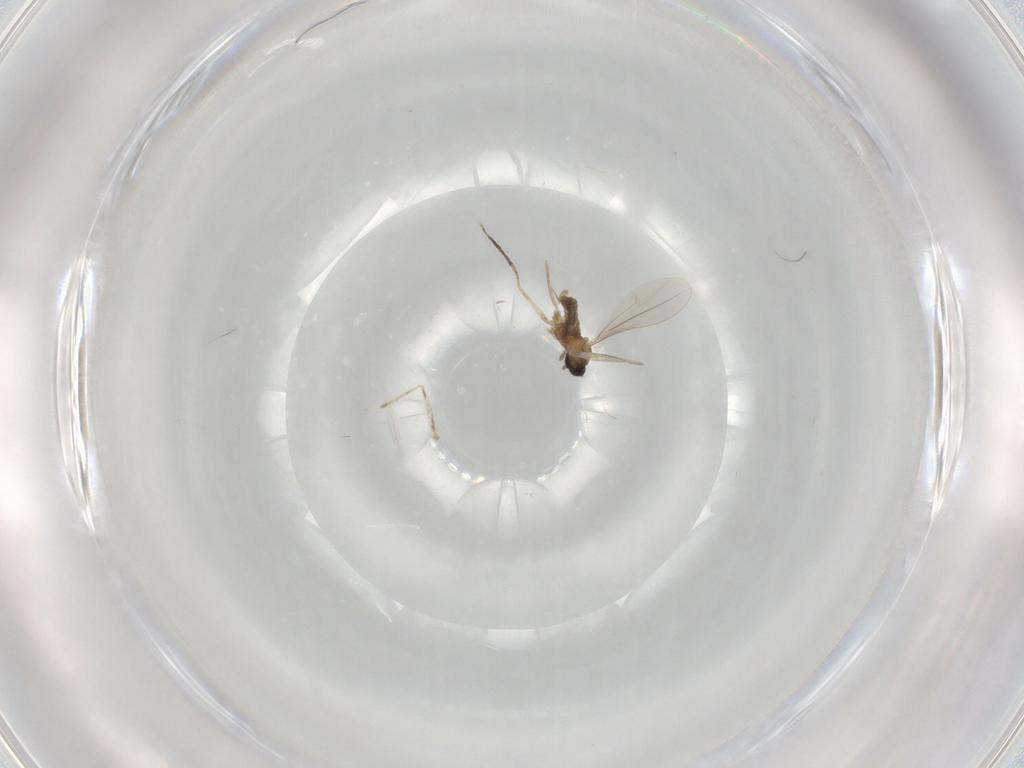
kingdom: Animalia
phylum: Arthropoda
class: Insecta
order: Diptera
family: Cecidomyiidae
